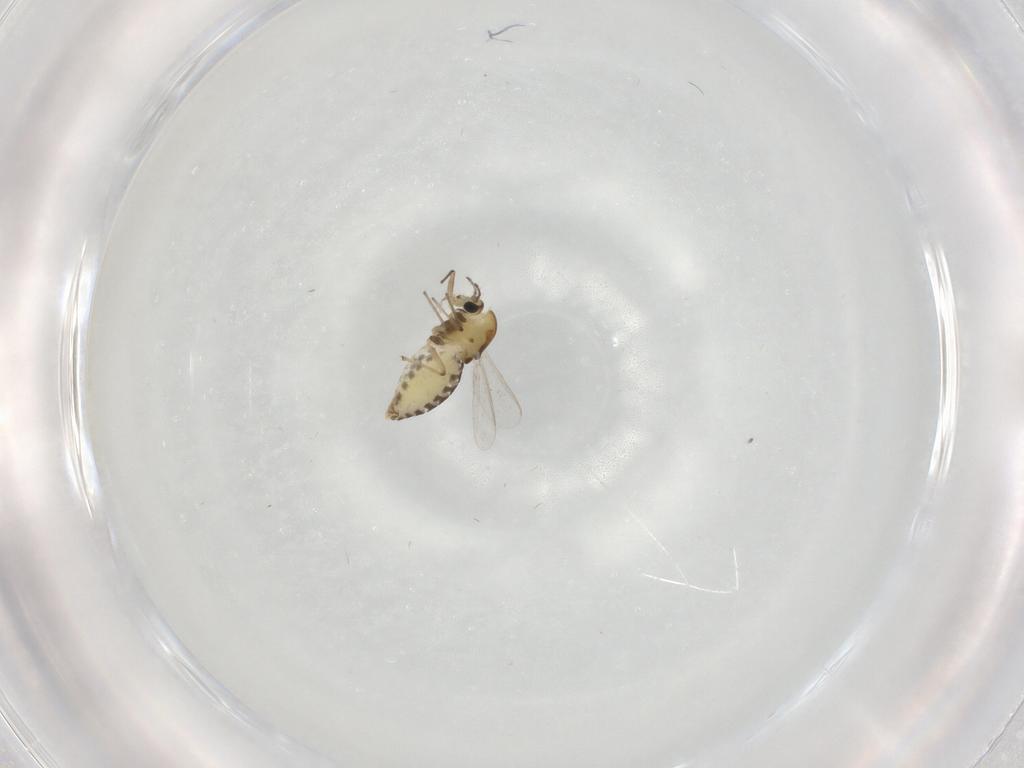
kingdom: Animalia
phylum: Arthropoda
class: Insecta
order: Diptera
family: Chironomidae
